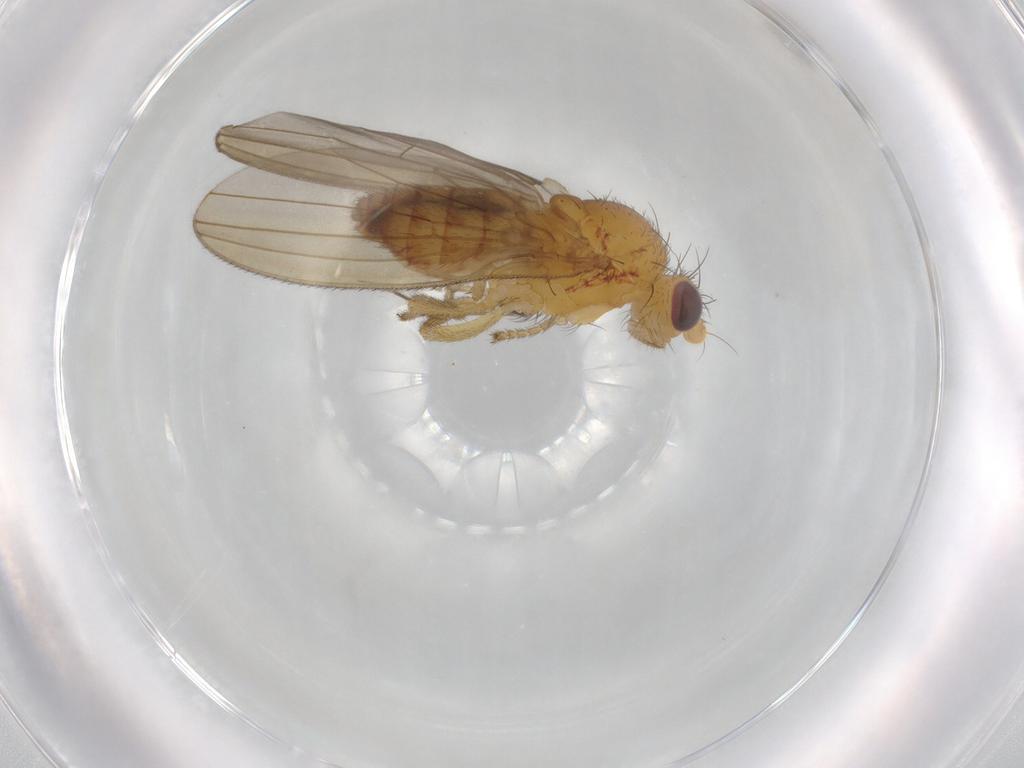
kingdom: Animalia
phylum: Arthropoda
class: Insecta
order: Diptera
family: Natalimyzidae
